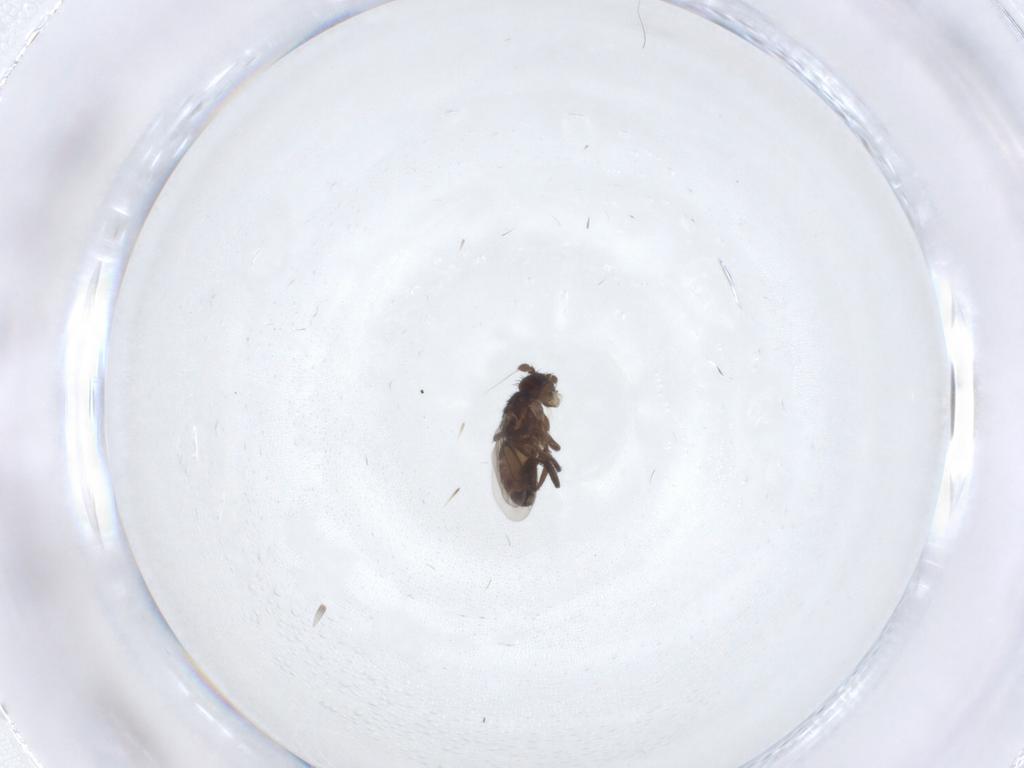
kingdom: Animalia
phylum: Arthropoda
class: Insecta
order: Diptera
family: Sphaeroceridae
